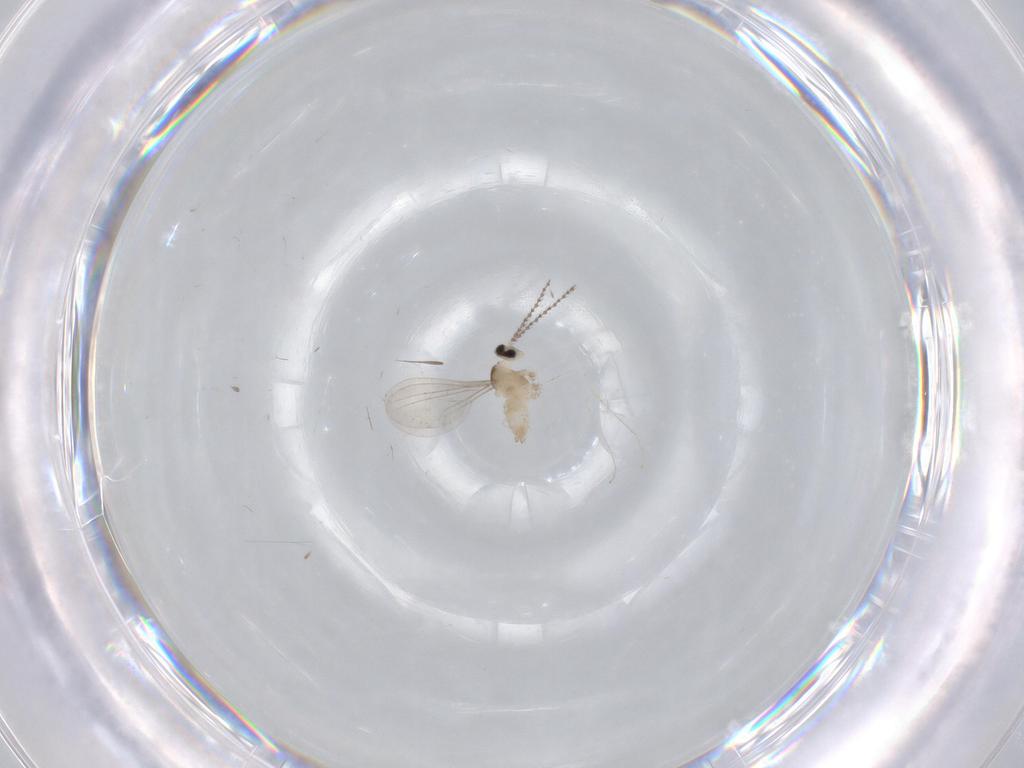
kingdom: Animalia
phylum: Arthropoda
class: Insecta
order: Diptera
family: Cecidomyiidae
